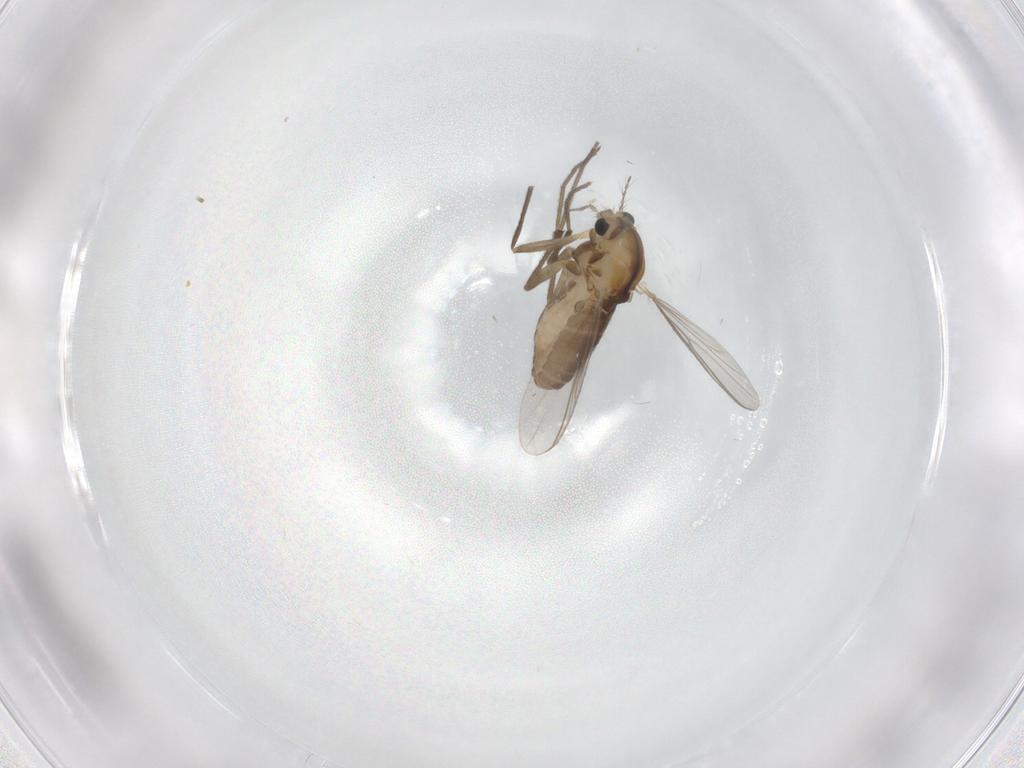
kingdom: Animalia
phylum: Arthropoda
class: Insecta
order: Diptera
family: Chironomidae
